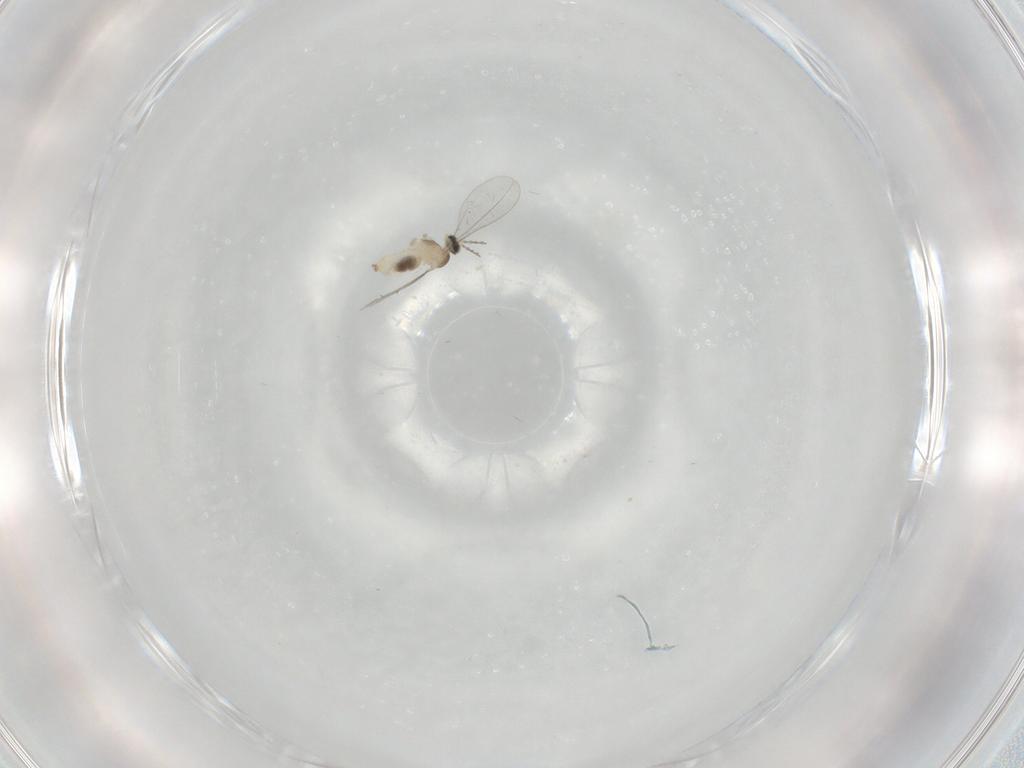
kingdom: Animalia
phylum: Arthropoda
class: Insecta
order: Diptera
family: Cecidomyiidae
